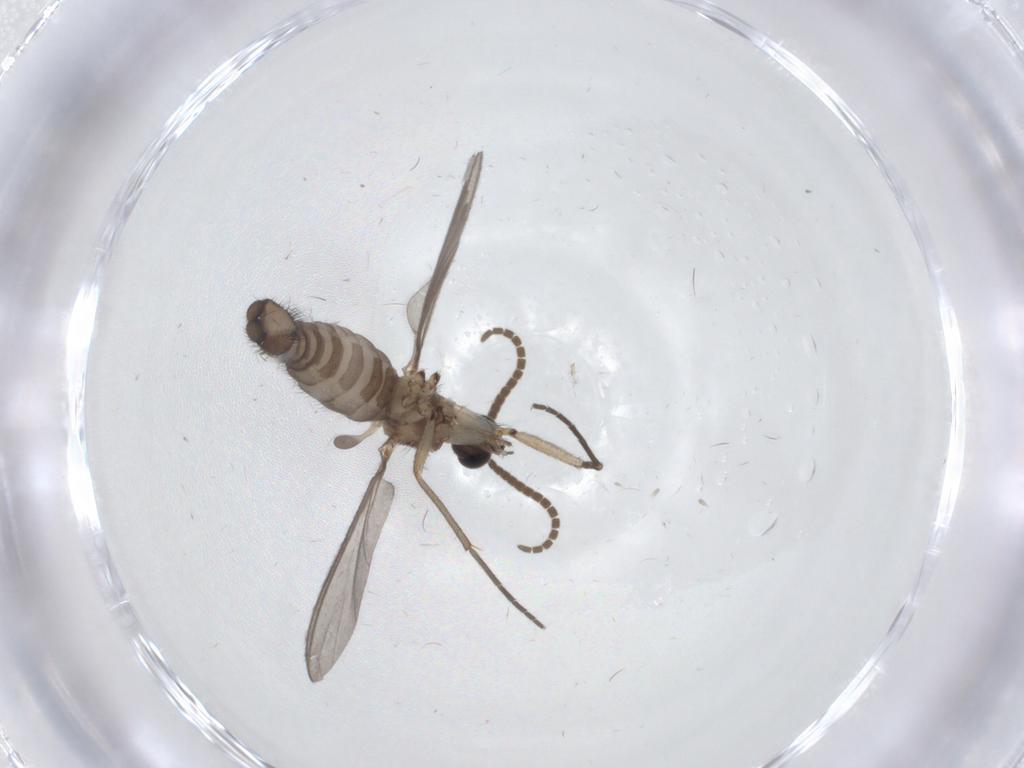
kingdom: Animalia
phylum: Arthropoda
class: Insecta
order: Diptera
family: Sciaridae
